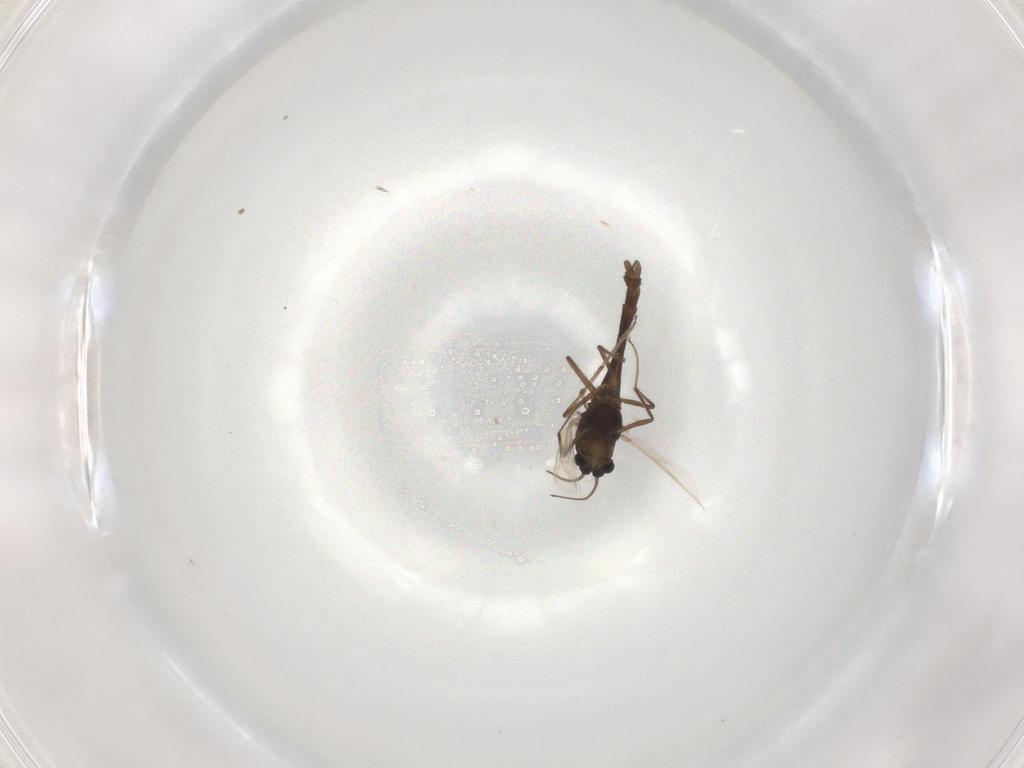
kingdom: Animalia
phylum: Arthropoda
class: Insecta
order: Diptera
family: Chironomidae
